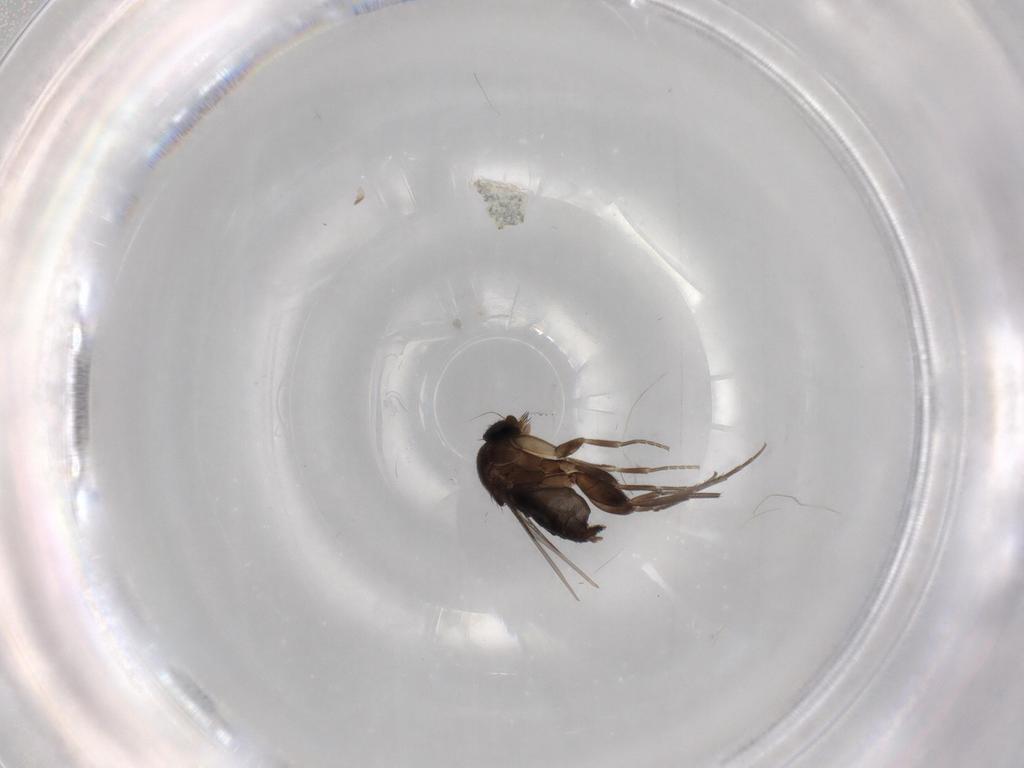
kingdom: Animalia
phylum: Arthropoda
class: Insecta
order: Diptera
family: Phoridae
